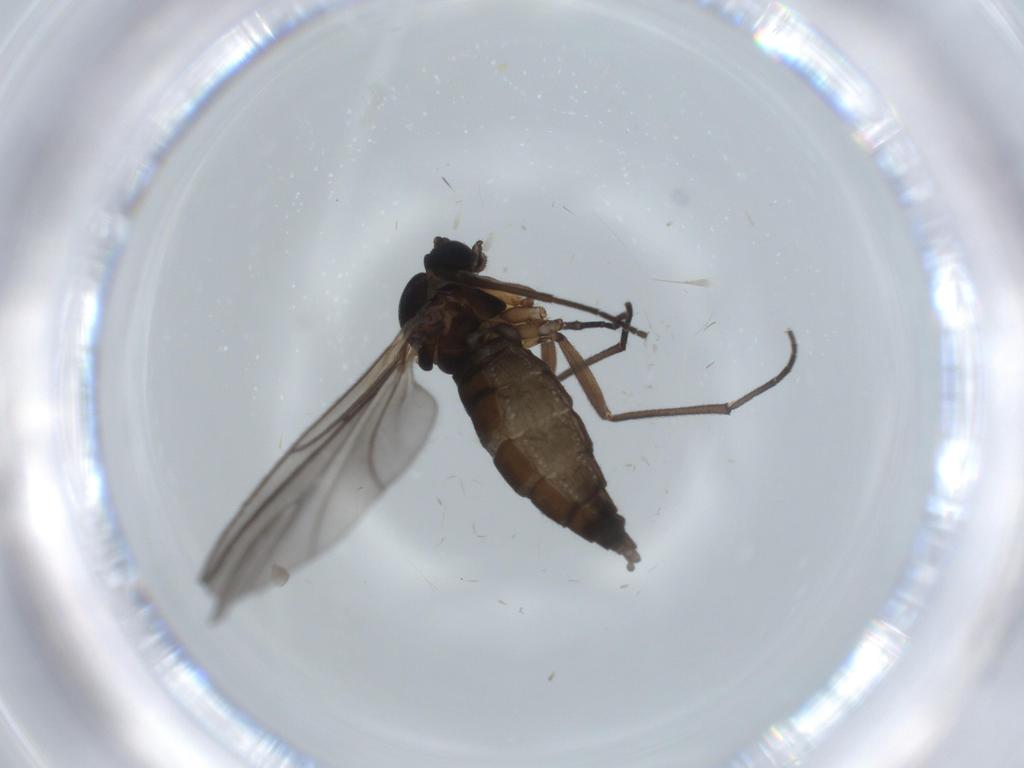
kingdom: Animalia
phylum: Arthropoda
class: Insecta
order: Diptera
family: Sciaridae
